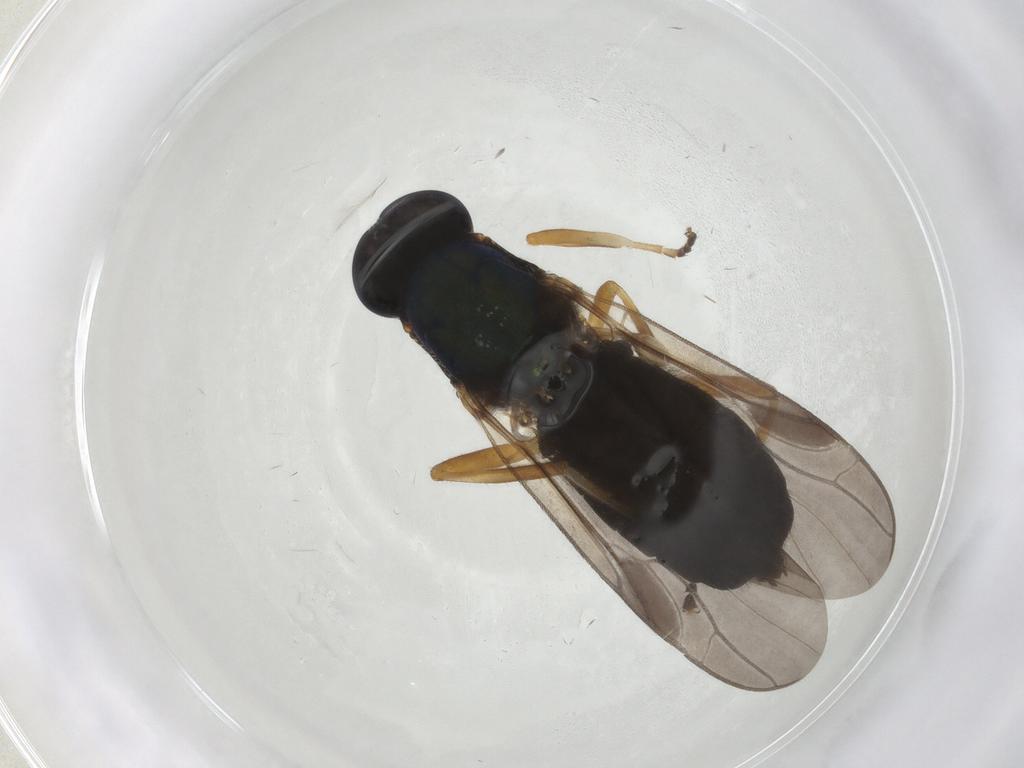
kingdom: Animalia
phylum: Arthropoda
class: Insecta
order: Diptera
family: Stratiomyidae
